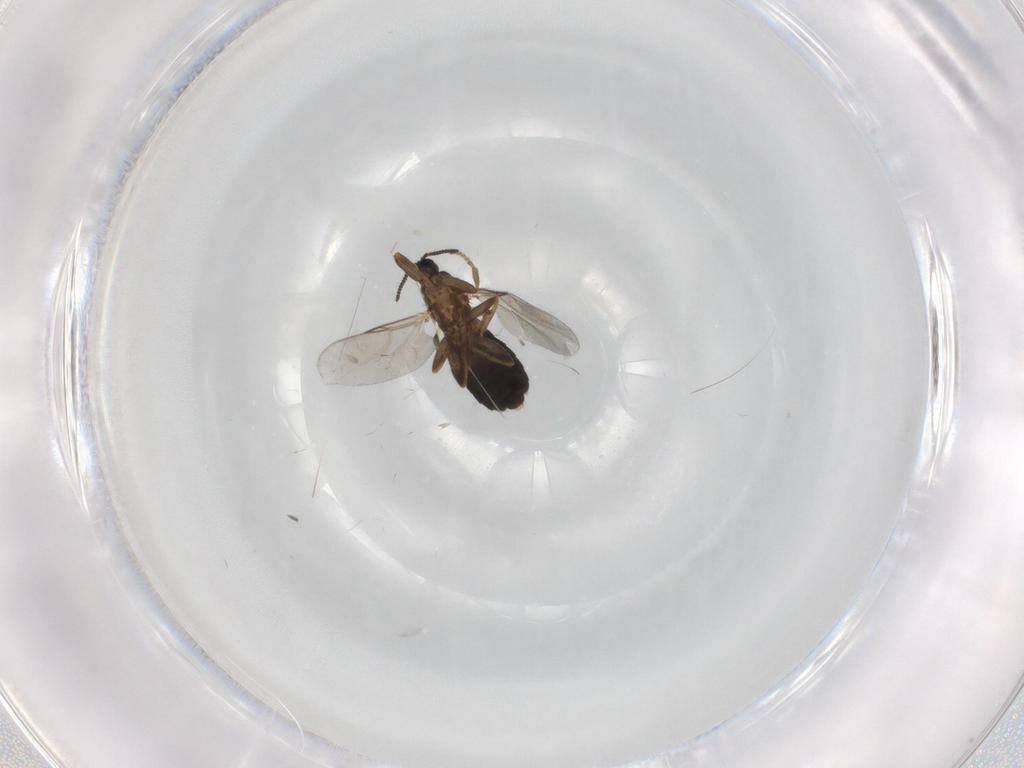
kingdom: Animalia
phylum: Arthropoda
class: Insecta
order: Diptera
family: Scatopsidae
